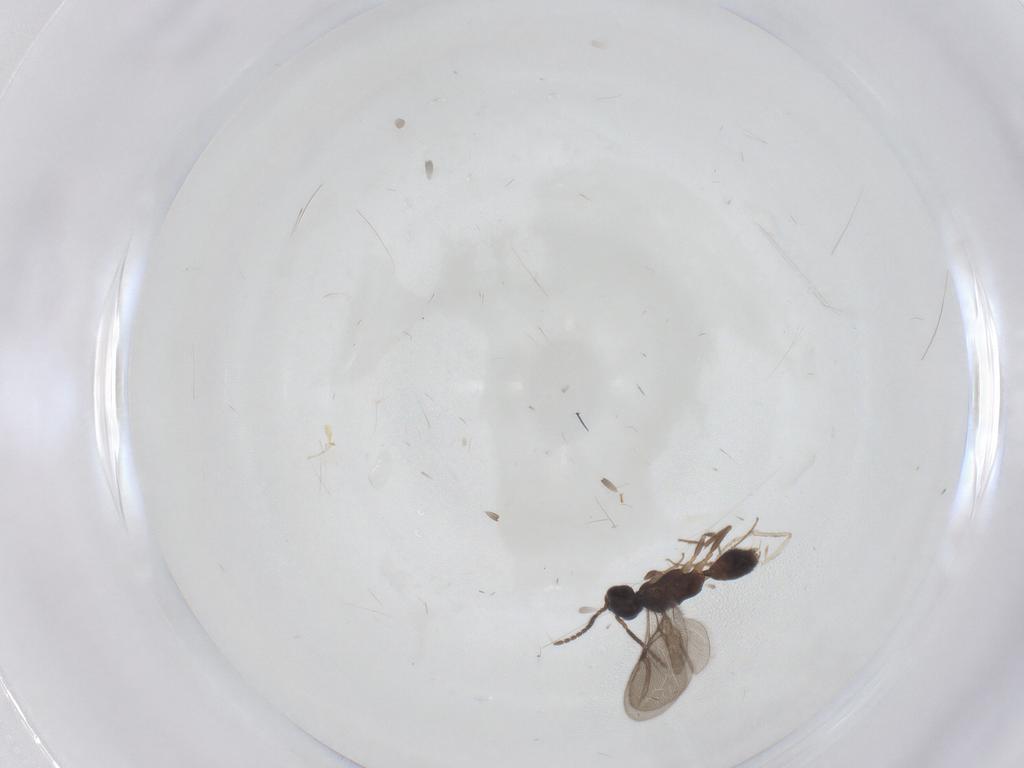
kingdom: Animalia
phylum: Arthropoda
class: Insecta
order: Hymenoptera
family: Bethylidae
